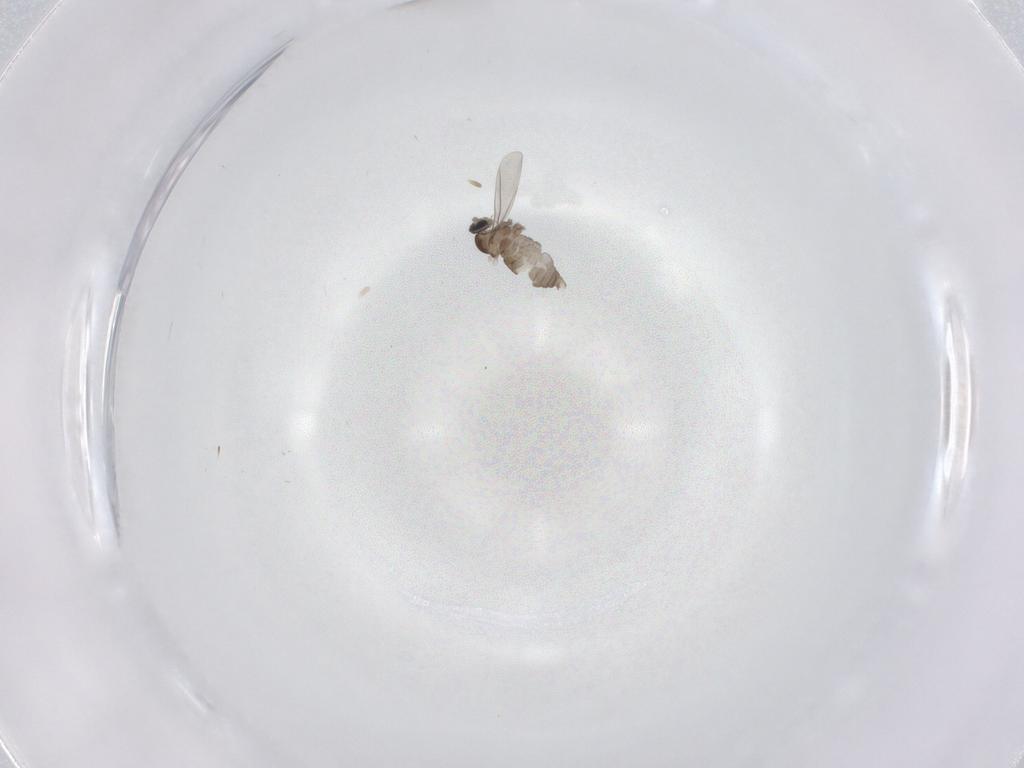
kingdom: Animalia
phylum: Arthropoda
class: Insecta
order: Diptera
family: Cecidomyiidae
